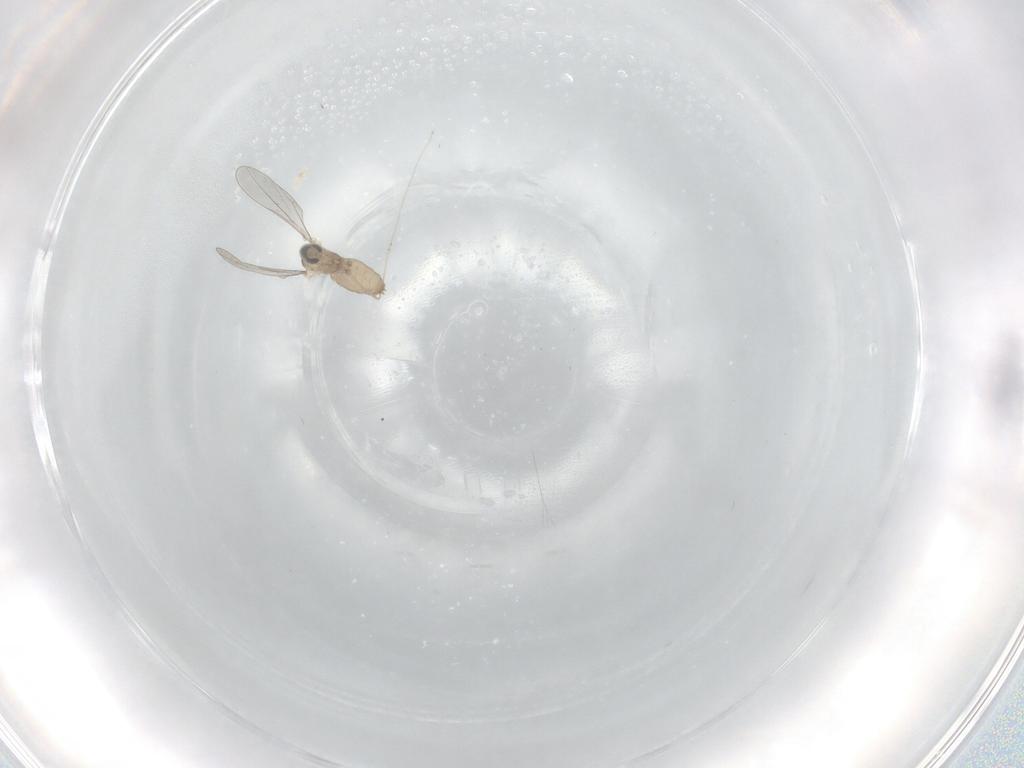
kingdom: Animalia
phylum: Arthropoda
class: Insecta
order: Diptera
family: Cecidomyiidae
